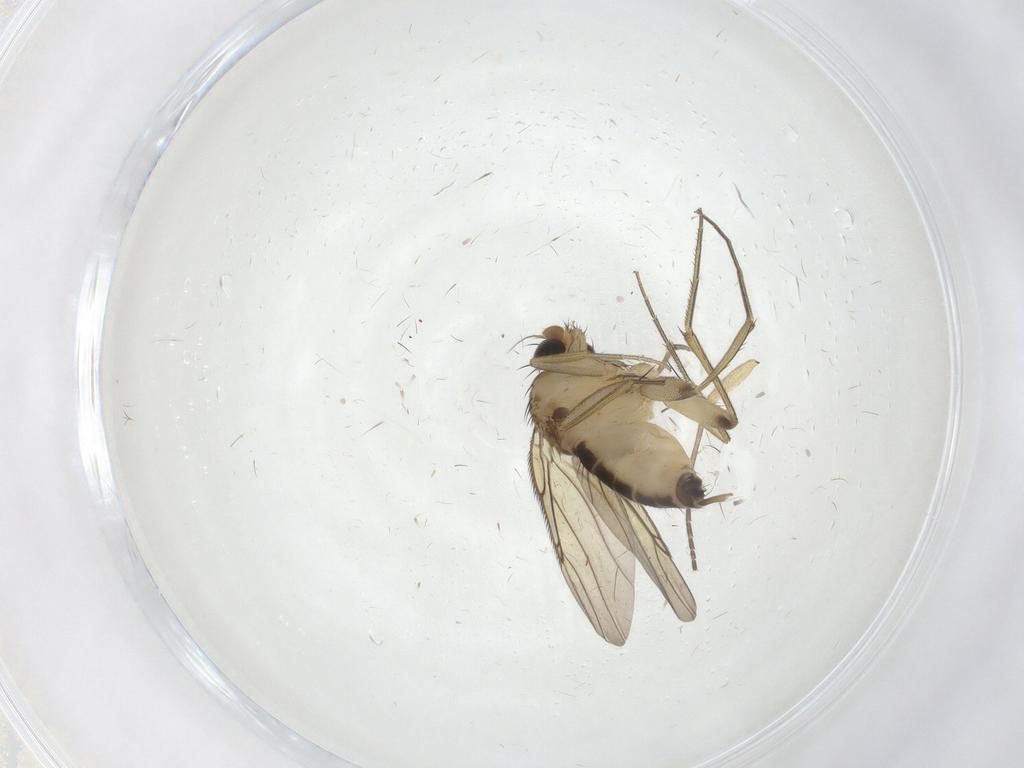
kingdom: Animalia
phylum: Arthropoda
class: Insecta
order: Diptera
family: Phoridae
